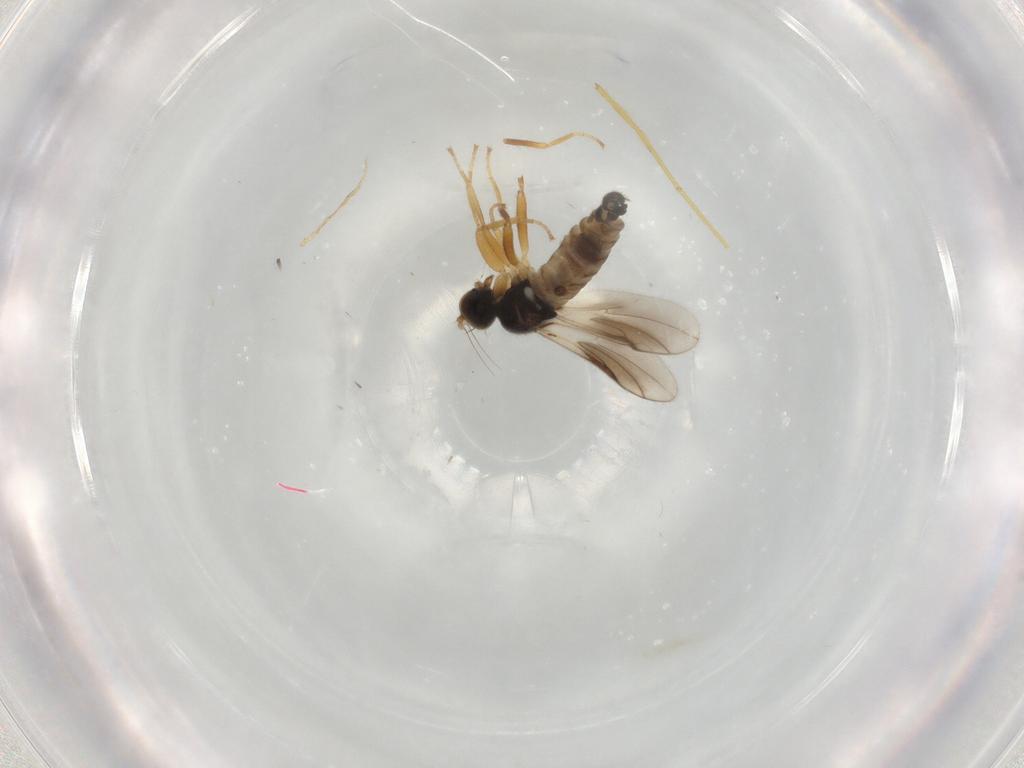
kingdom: Animalia
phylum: Arthropoda
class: Insecta
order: Diptera
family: Hybotidae
